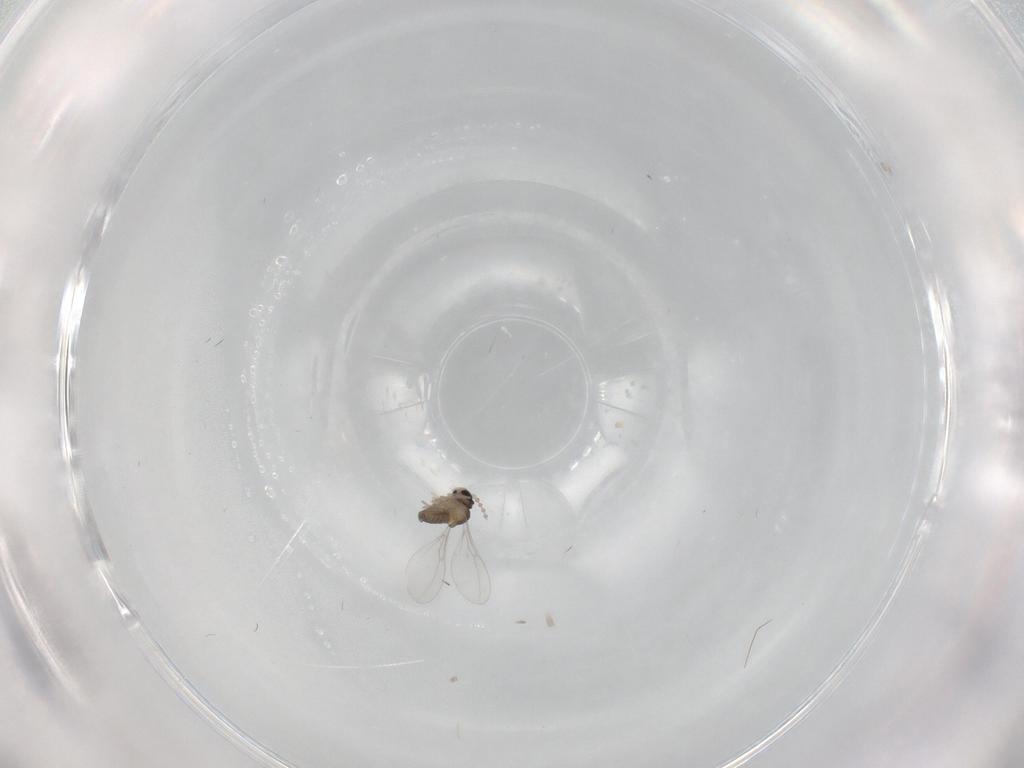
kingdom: Animalia
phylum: Arthropoda
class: Insecta
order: Diptera
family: Cecidomyiidae
